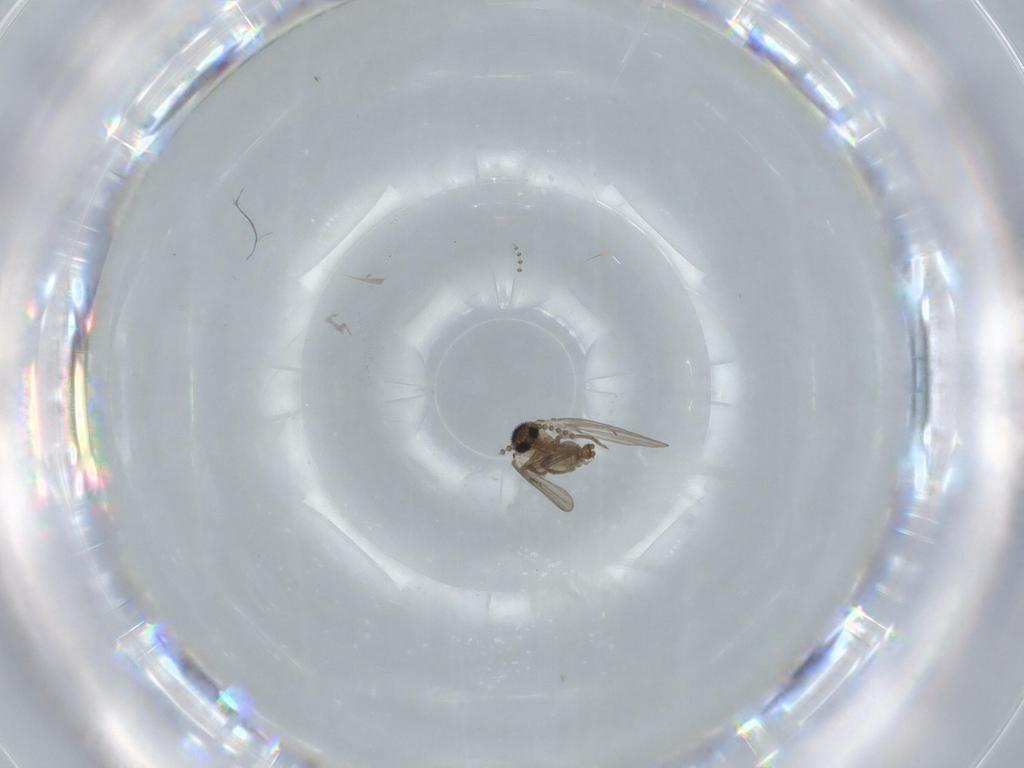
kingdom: Animalia
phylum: Arthropoda
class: Insecta
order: Diptera
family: Psychodidae
